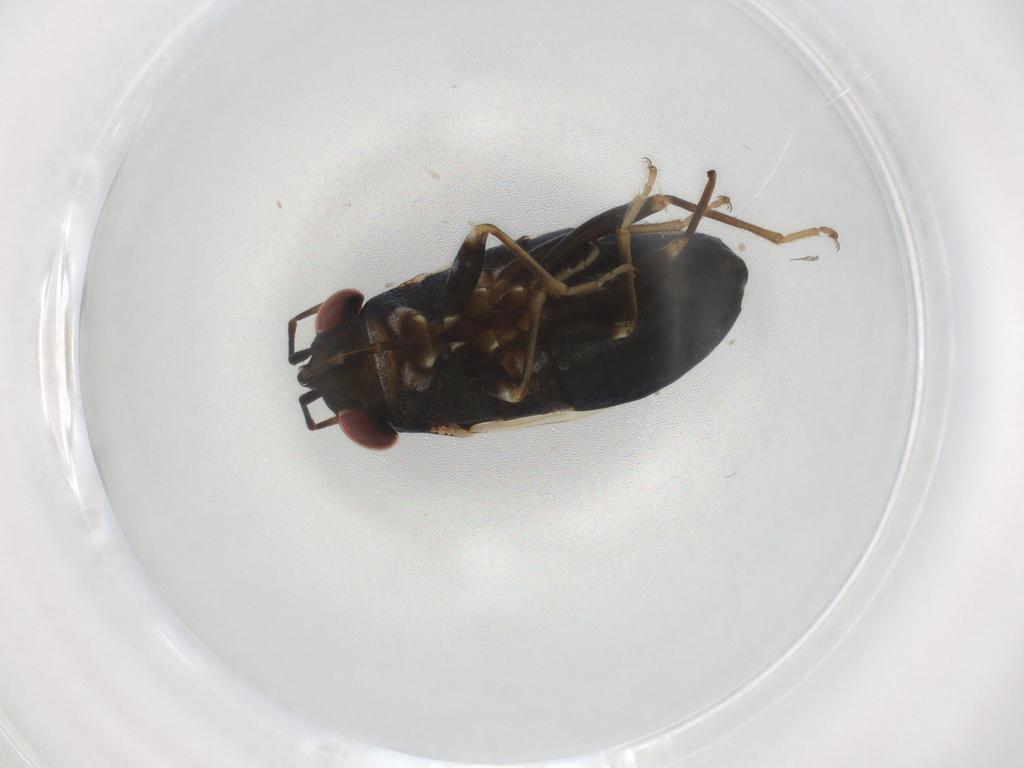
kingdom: Animalia
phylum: Arthropoda
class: Insecta
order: Hemiptera
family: Geocoridae
